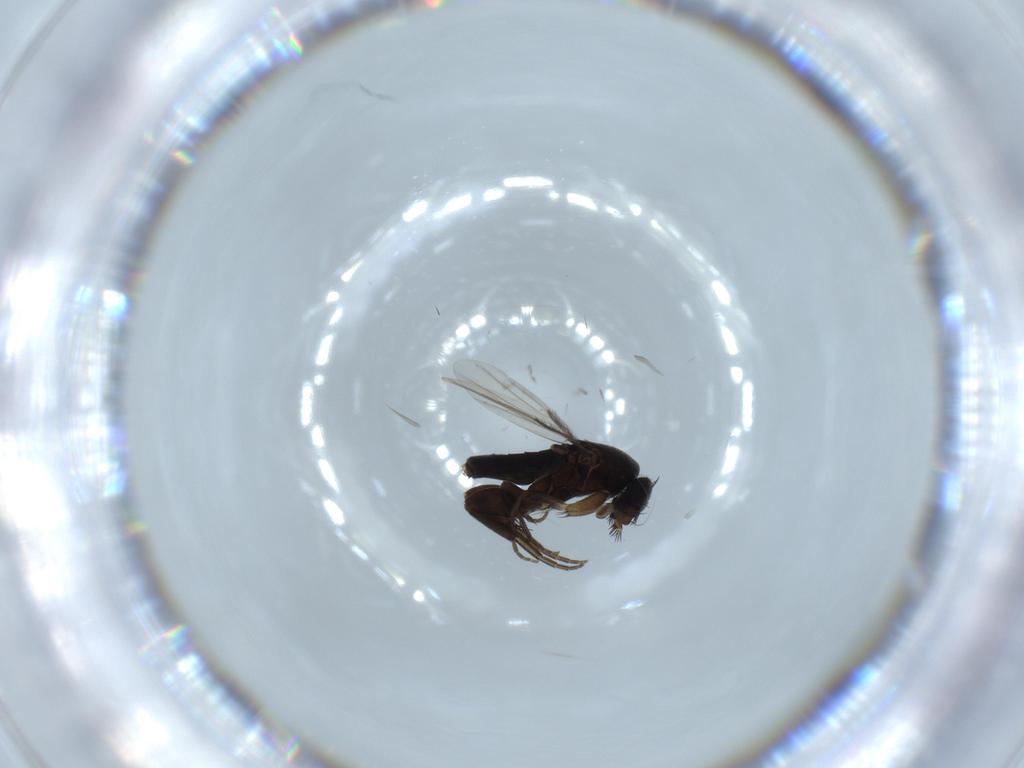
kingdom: Animalia
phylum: Arthropoda
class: Insecta
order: Diptera
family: Phoridae
